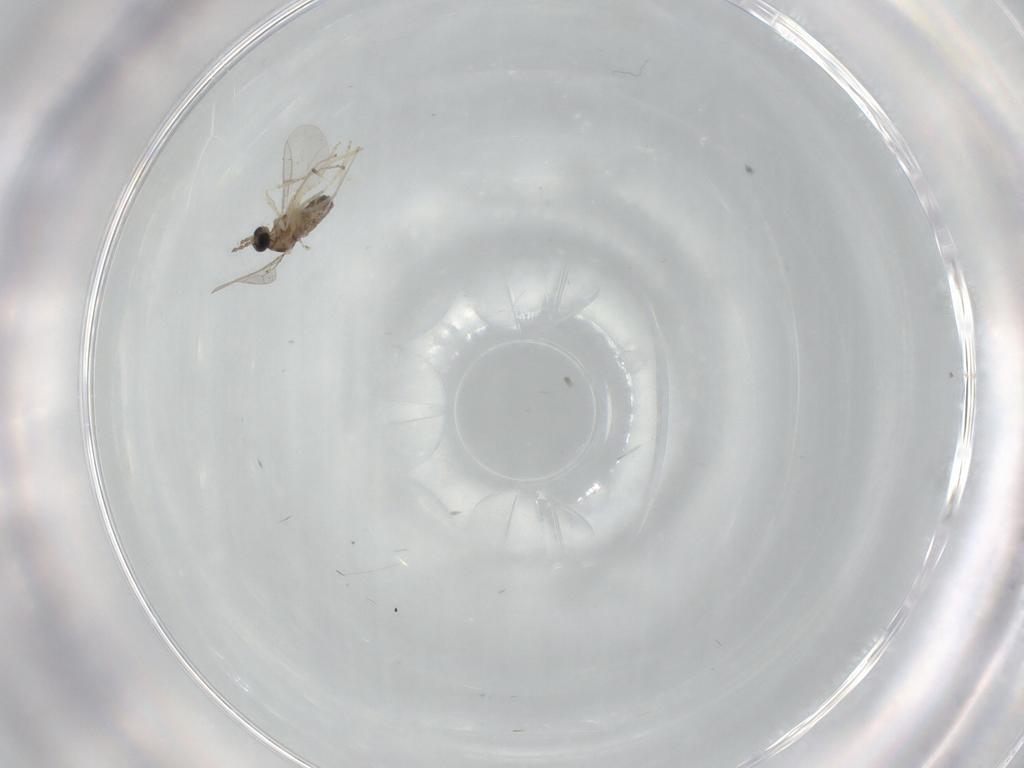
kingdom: Animalia
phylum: Arthropoda
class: Insecta
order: Diptera
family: Cecidomyiidae
